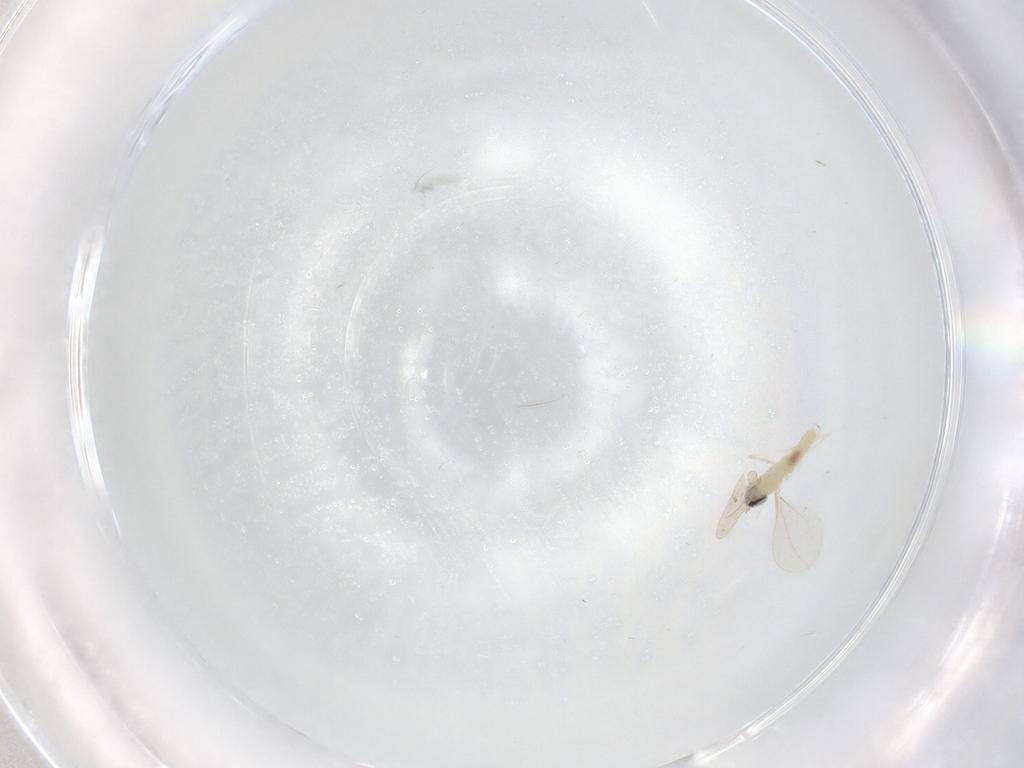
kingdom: Animalia
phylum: Arthropoda
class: Insecta
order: Diptera
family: Cecidomyiidae
